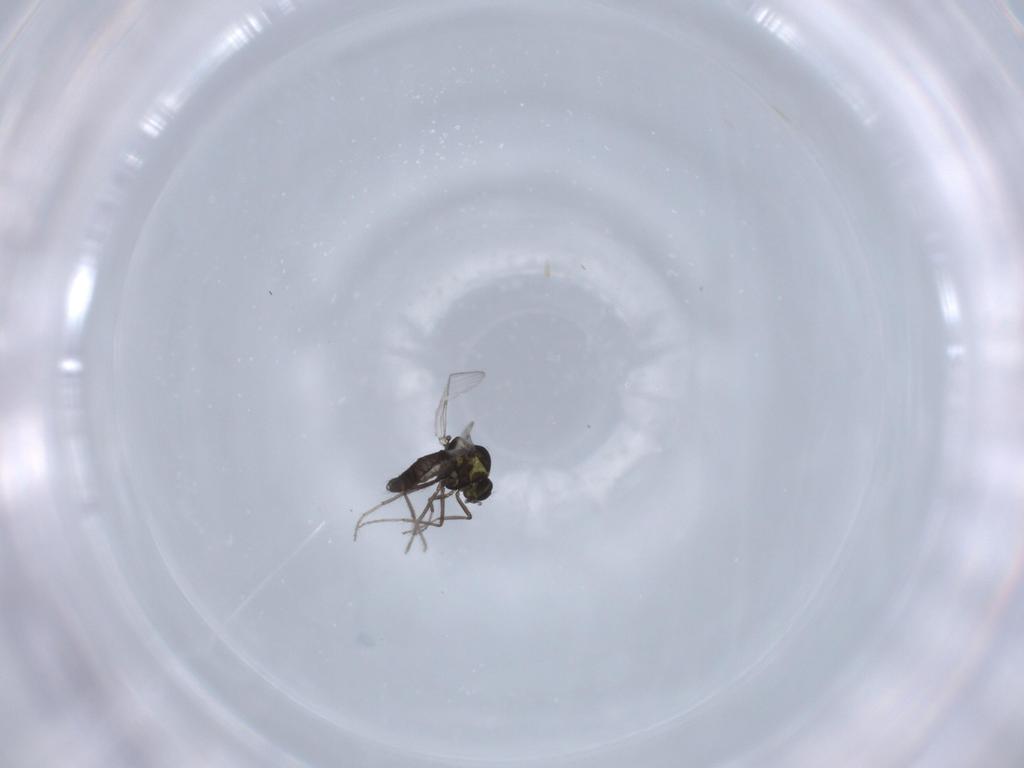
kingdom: Animalia
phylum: Arthropoda
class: Insecta
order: Diptera
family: Ceratopogonidae
